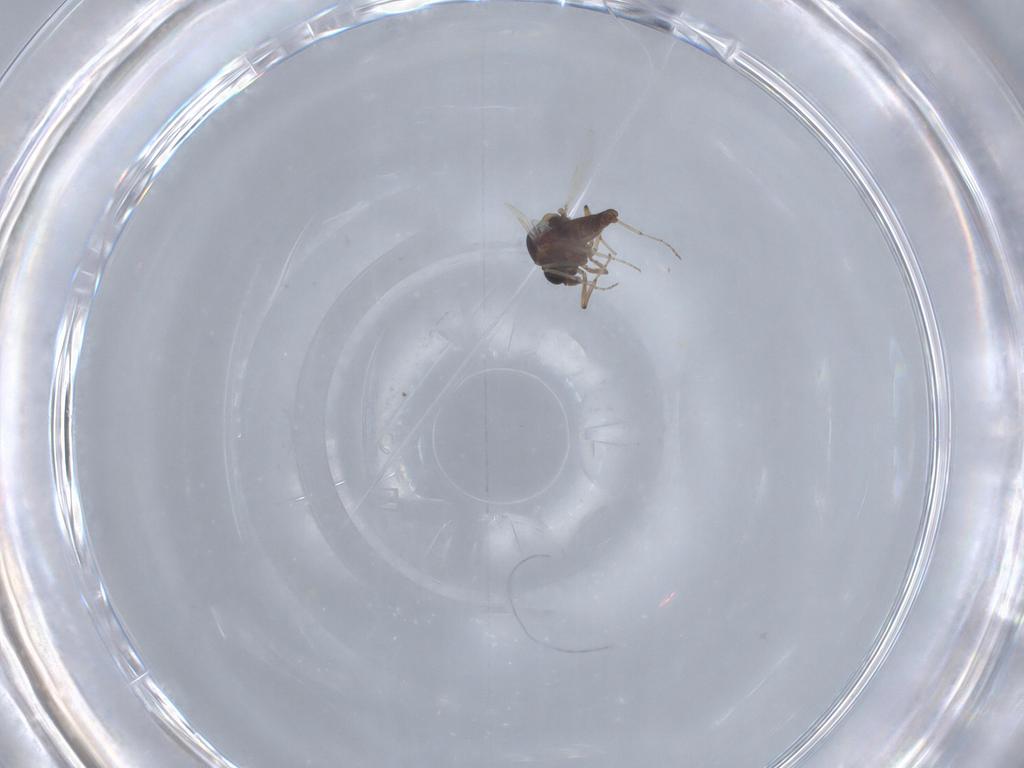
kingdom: Animalia
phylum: Arthropoda
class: Insecta
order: Diptera
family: Ceratopogonidae
